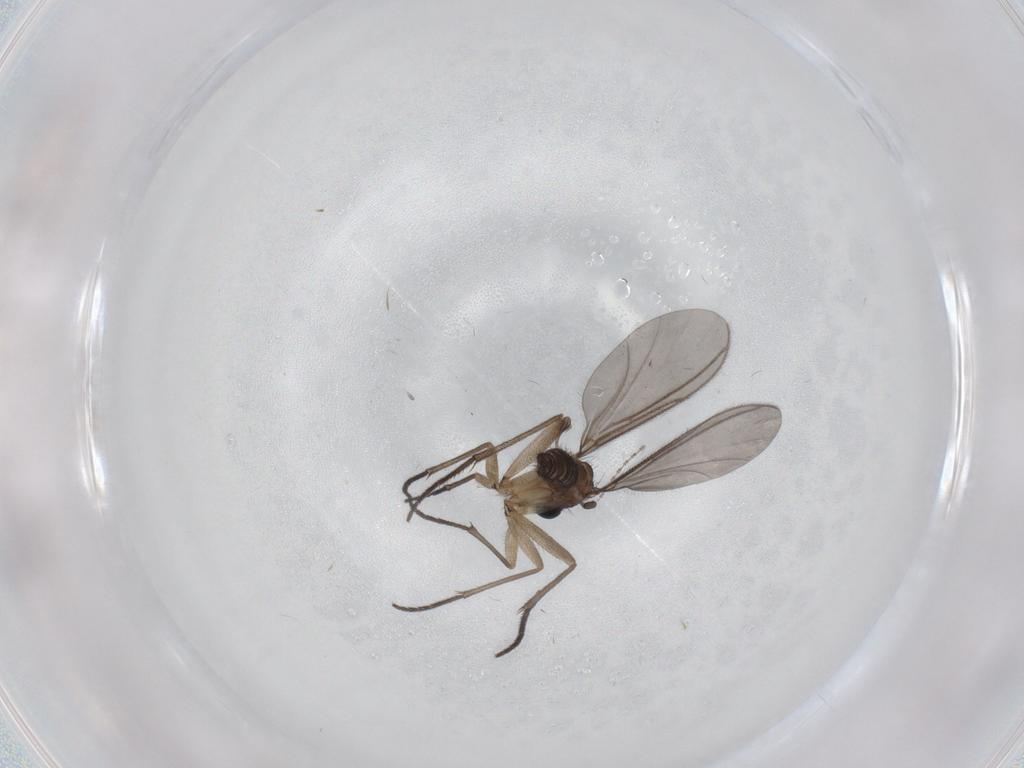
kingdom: Animalia
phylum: Arthropoda
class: Insecta
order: Diptera
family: Sciaridae
